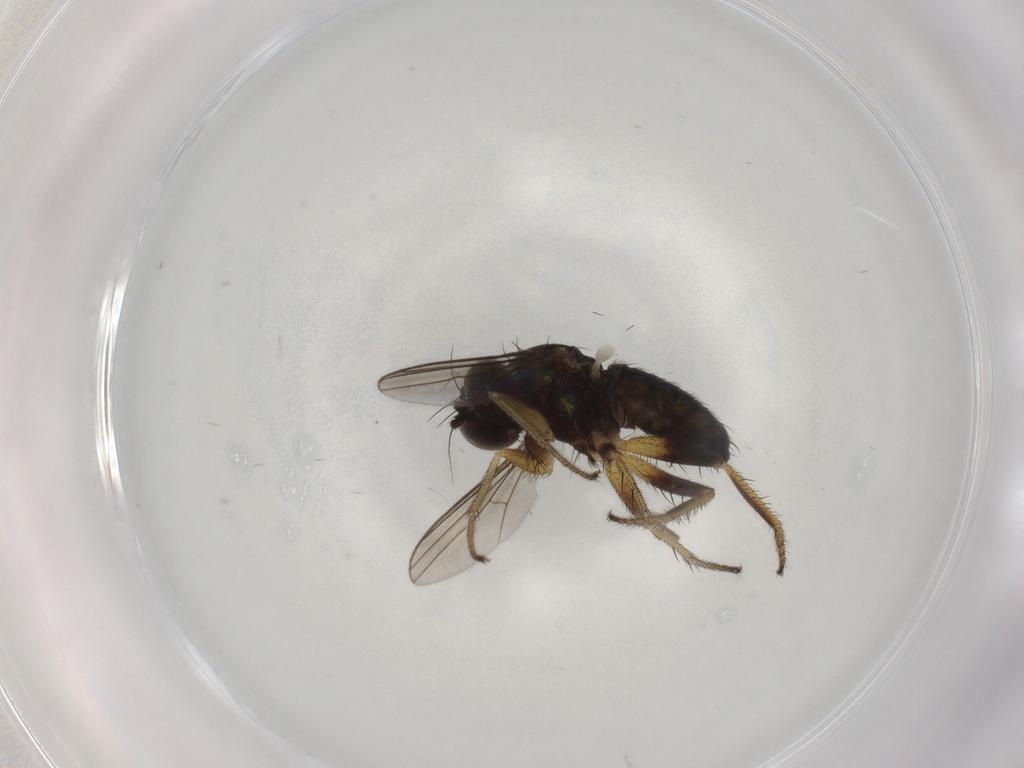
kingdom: Animalia
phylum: Arthropoda
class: Insecta
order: Diptera
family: Dolichopodidae
